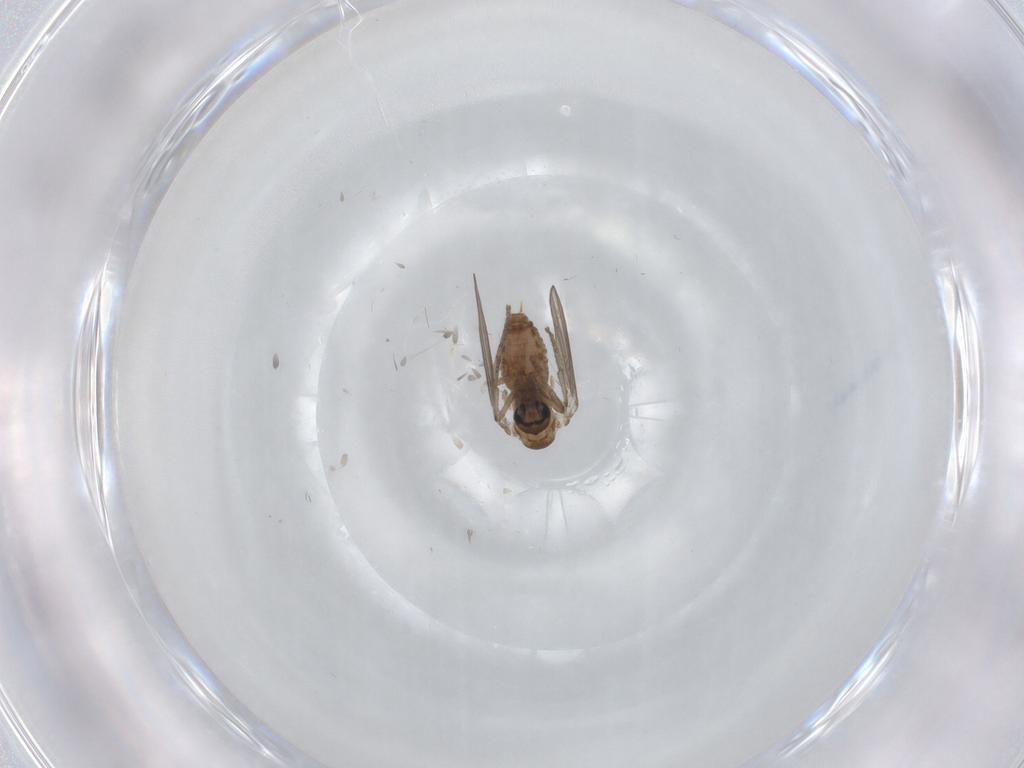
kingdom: Animalia
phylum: Arthropoda
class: Insecta
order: Diptera
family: Psychodidae
